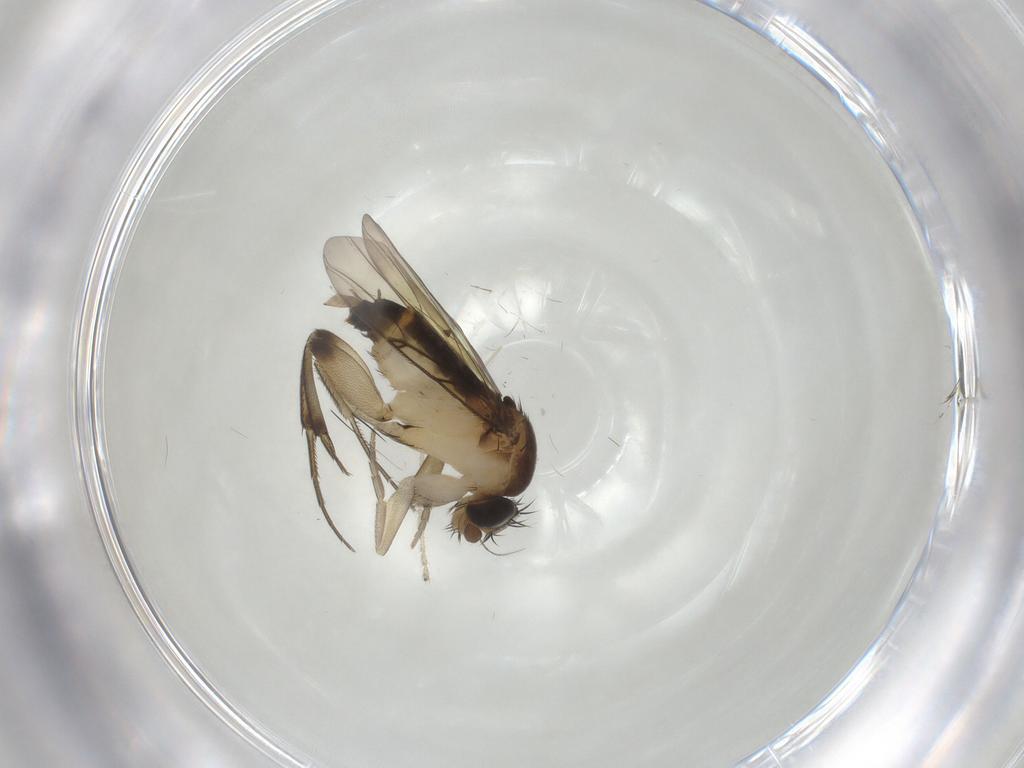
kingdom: Animalia
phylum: Arthropoda
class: Insecta
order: Diptera
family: Phoridae
